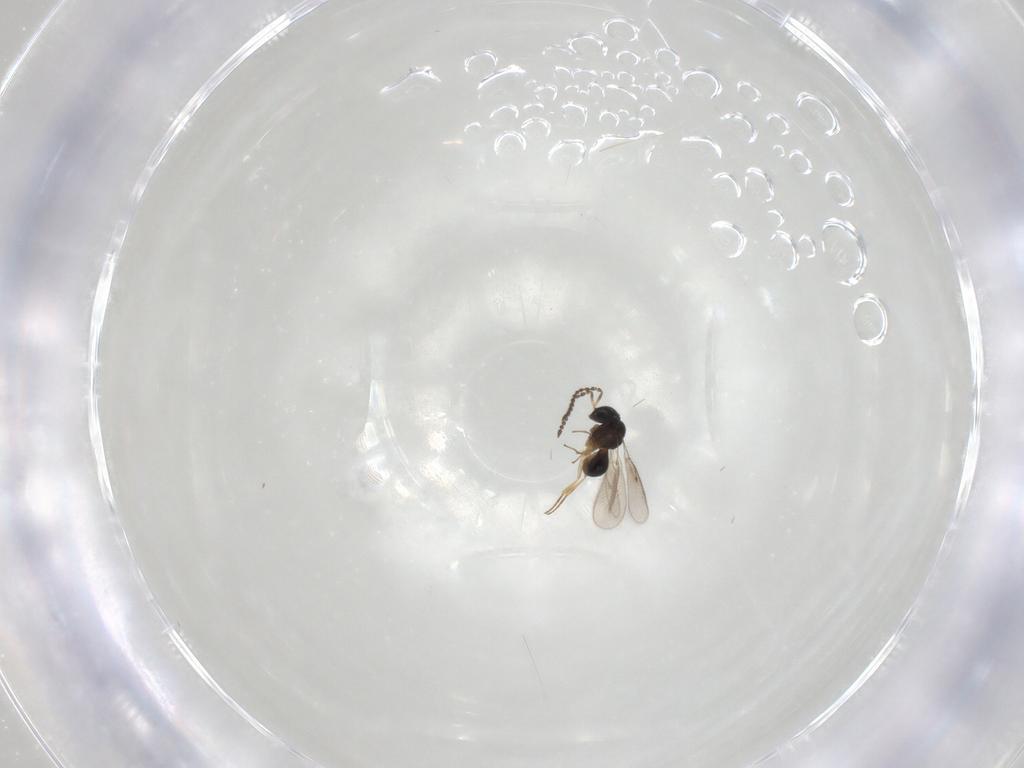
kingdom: Animalia
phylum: Arthropoda
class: Insecta
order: Hymenoptera
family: Scelionidae
